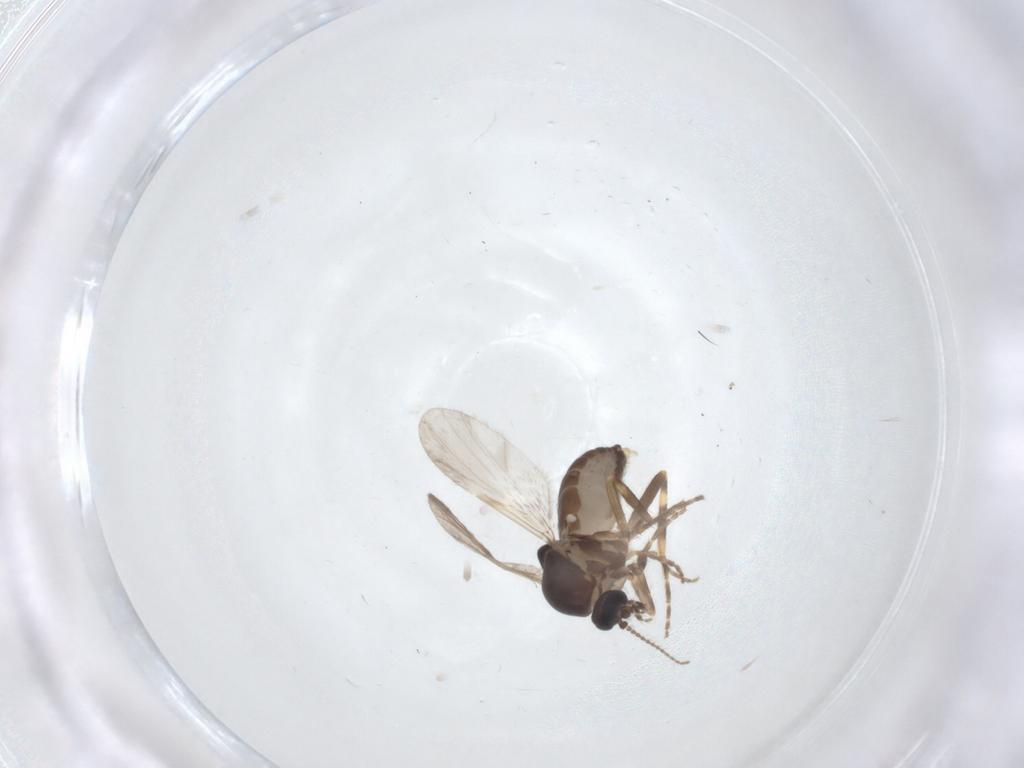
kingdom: Animalia
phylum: Arthropoda
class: Insecta
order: Diptera
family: Ceratopogonidae
